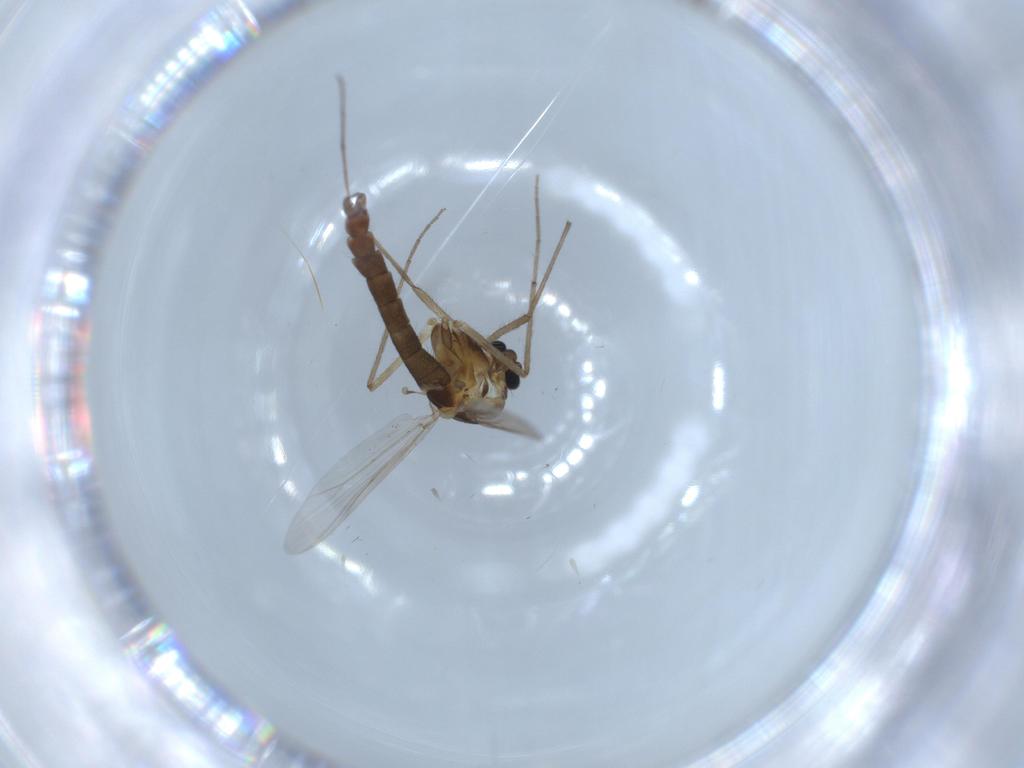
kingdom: Animalia
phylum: Arthropoda
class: Insecta
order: Diptera
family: Chironomidae
